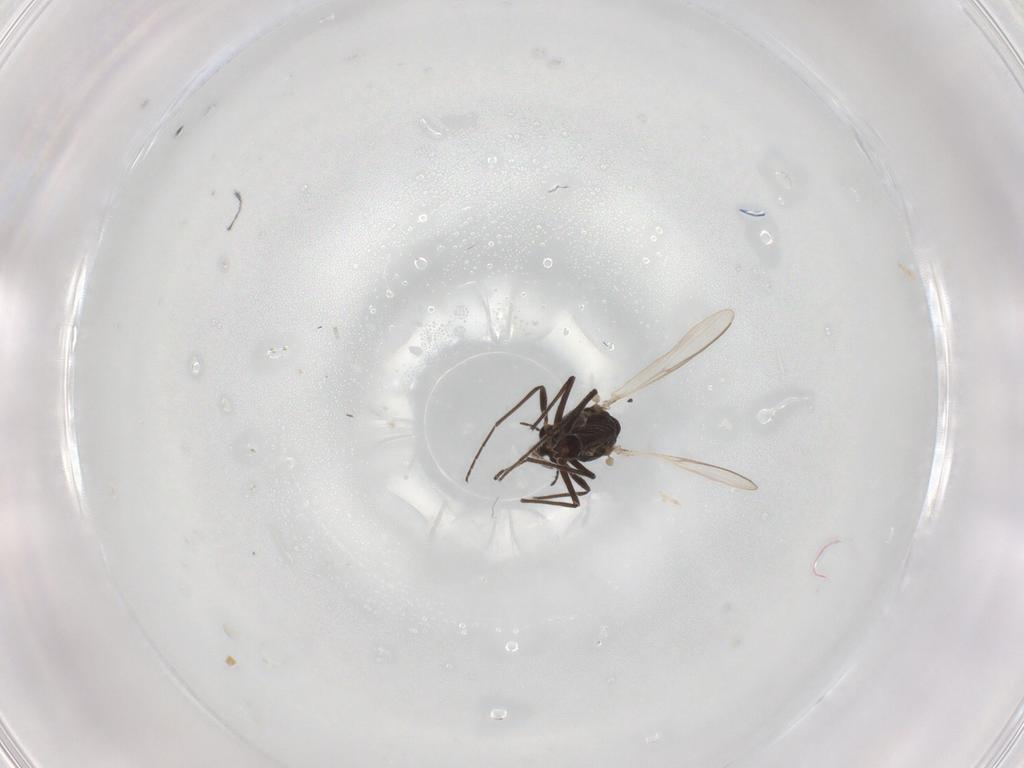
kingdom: Animalia
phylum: Arthropoda
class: Insecta
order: Diptera
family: Chironomidae
